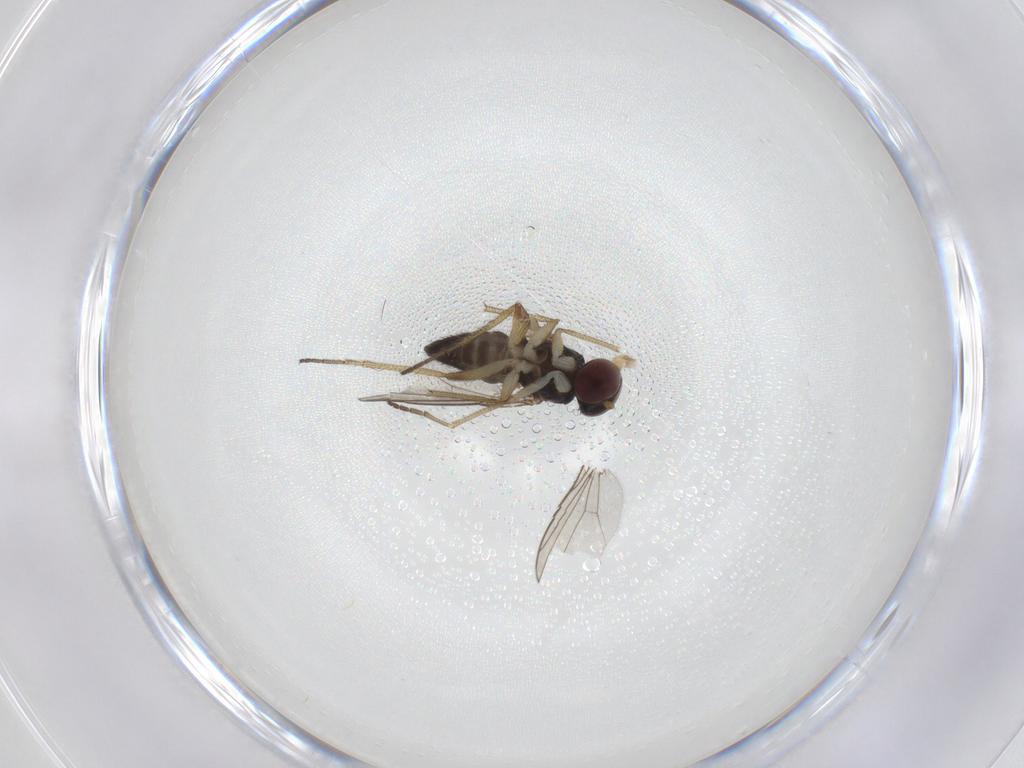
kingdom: Animalia
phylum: Arthropoda
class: Insecta
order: Diptera
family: Dolichopodidae
